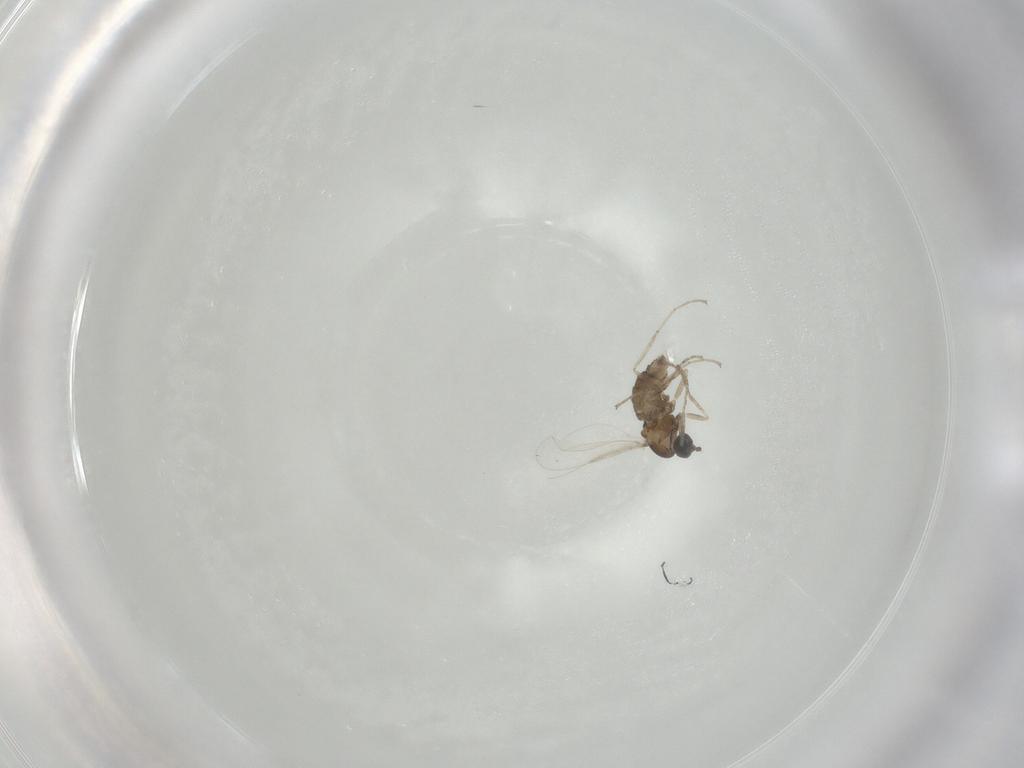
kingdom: Animalia
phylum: Arthropoda
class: Insecta
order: Diptera
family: Cecidomyiidae
